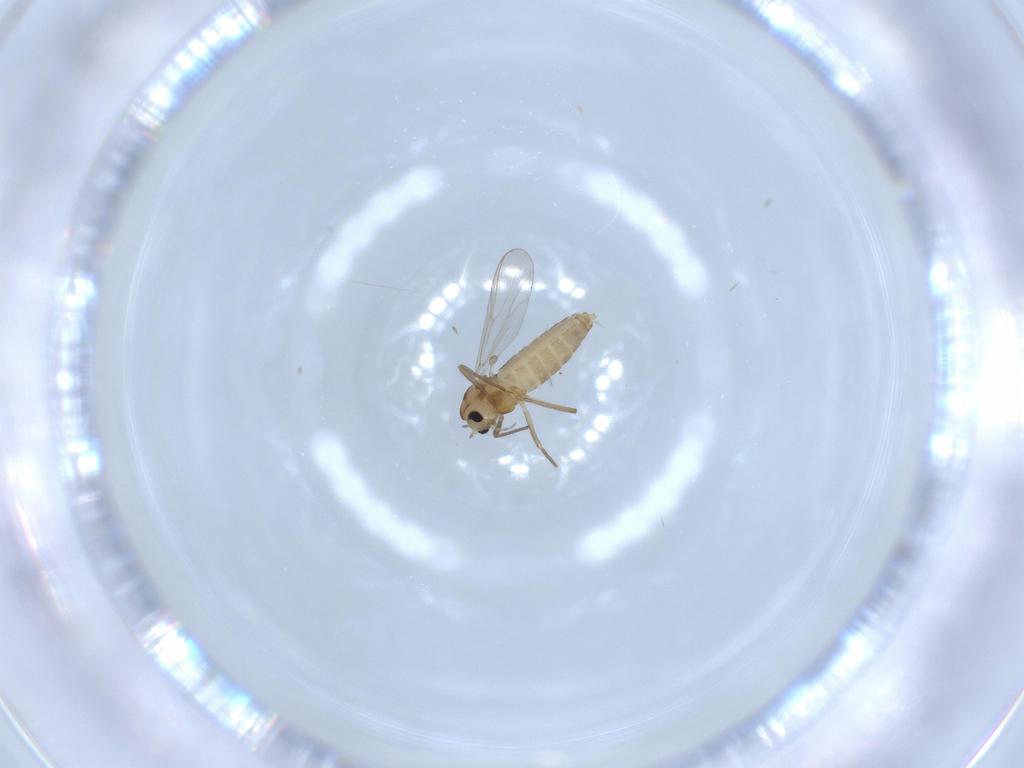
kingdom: Animalia
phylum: Arthropoda
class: Insecta
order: Diptera
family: Chironomidae
